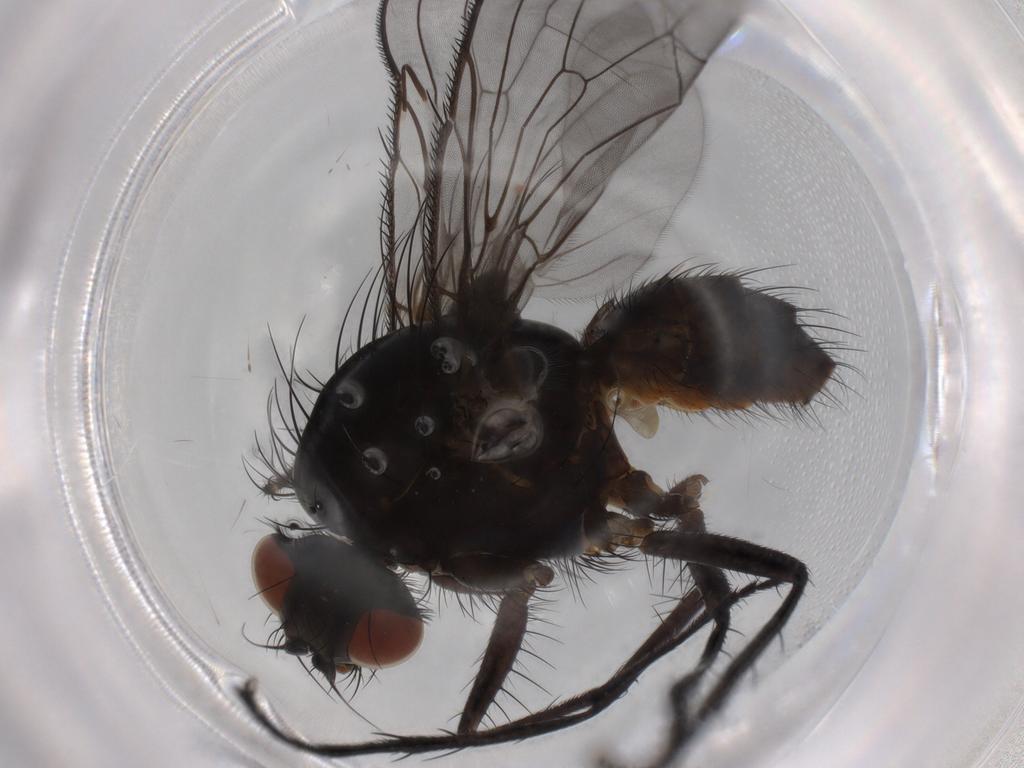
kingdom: Animalia
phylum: Arthropoda
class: Insecta
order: Diptera
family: Anthomyiidae
